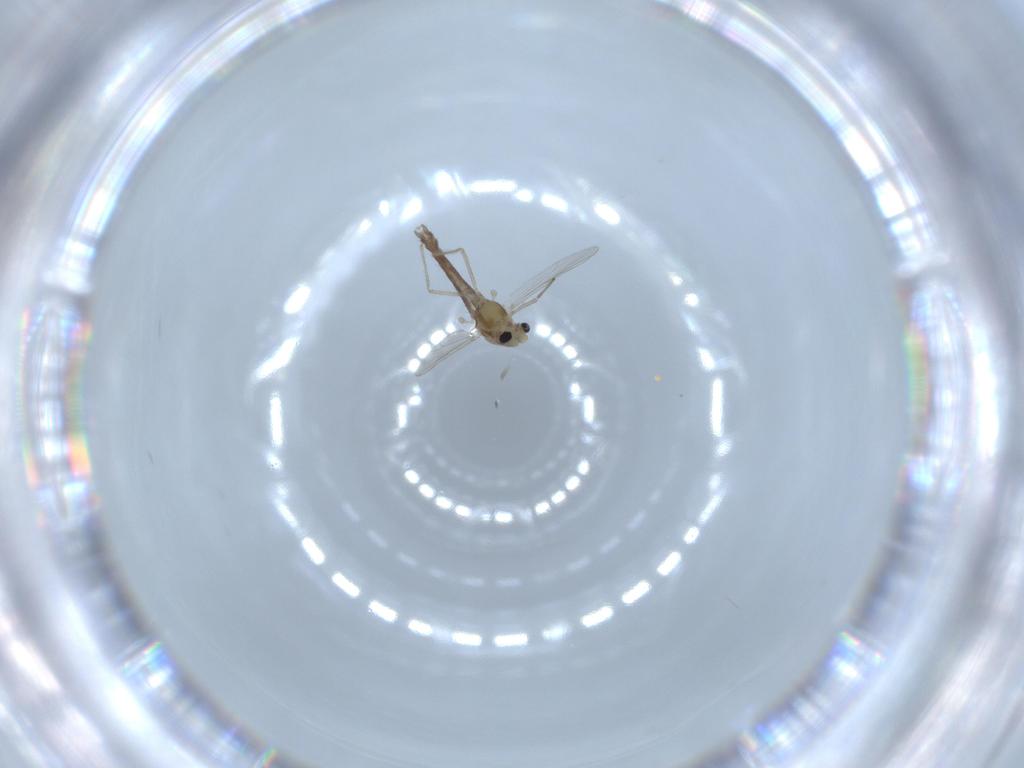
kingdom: Animalia
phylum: Arthropoda
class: Insecta
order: Diptera
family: Chironomidae
